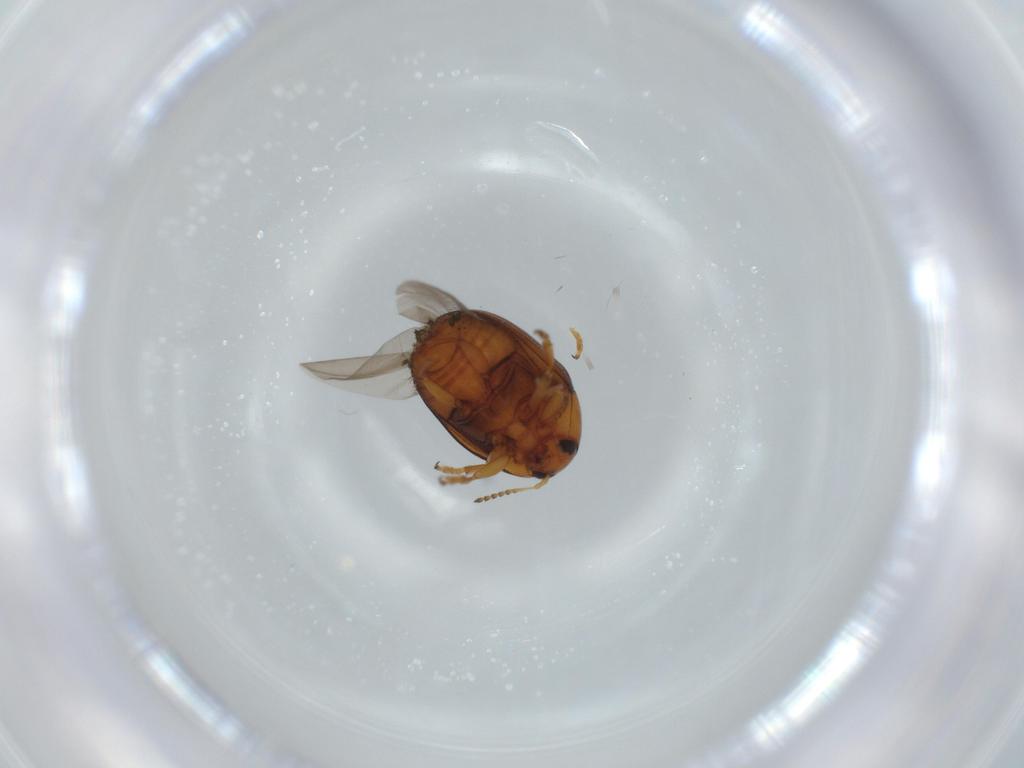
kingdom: Animalia
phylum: Arthropoda
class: Insecta
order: Coleoptera
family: Chrysomelidae
